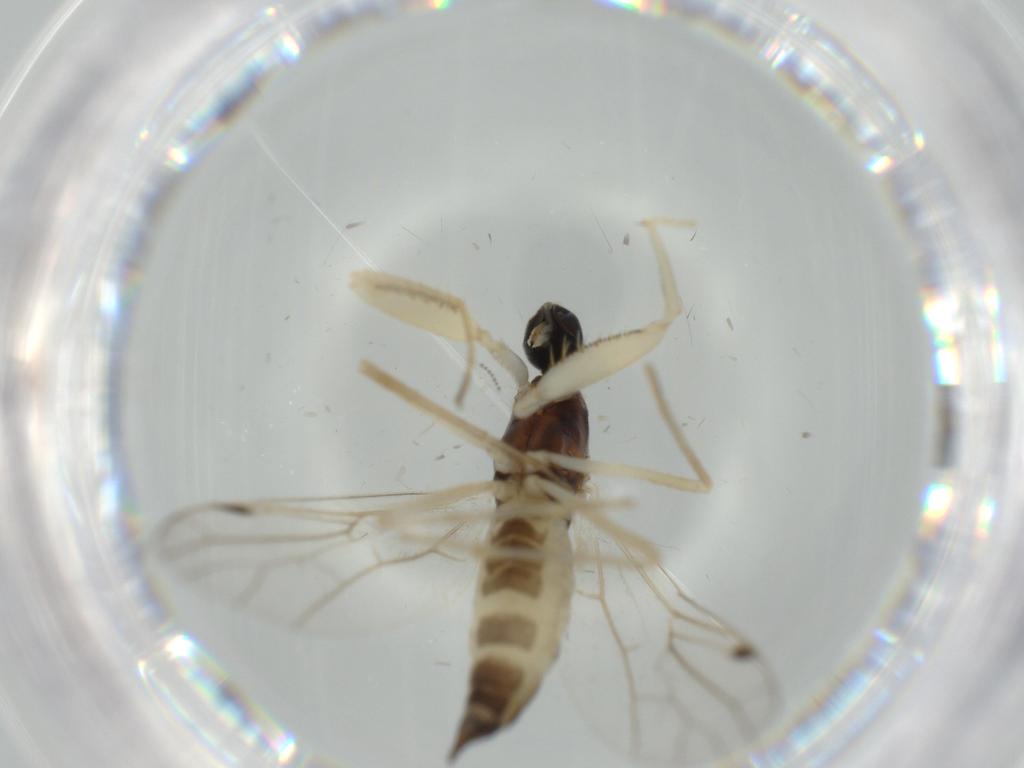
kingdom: Animalia
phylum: Arthropoda
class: Insecta
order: Diptera
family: Empididae
